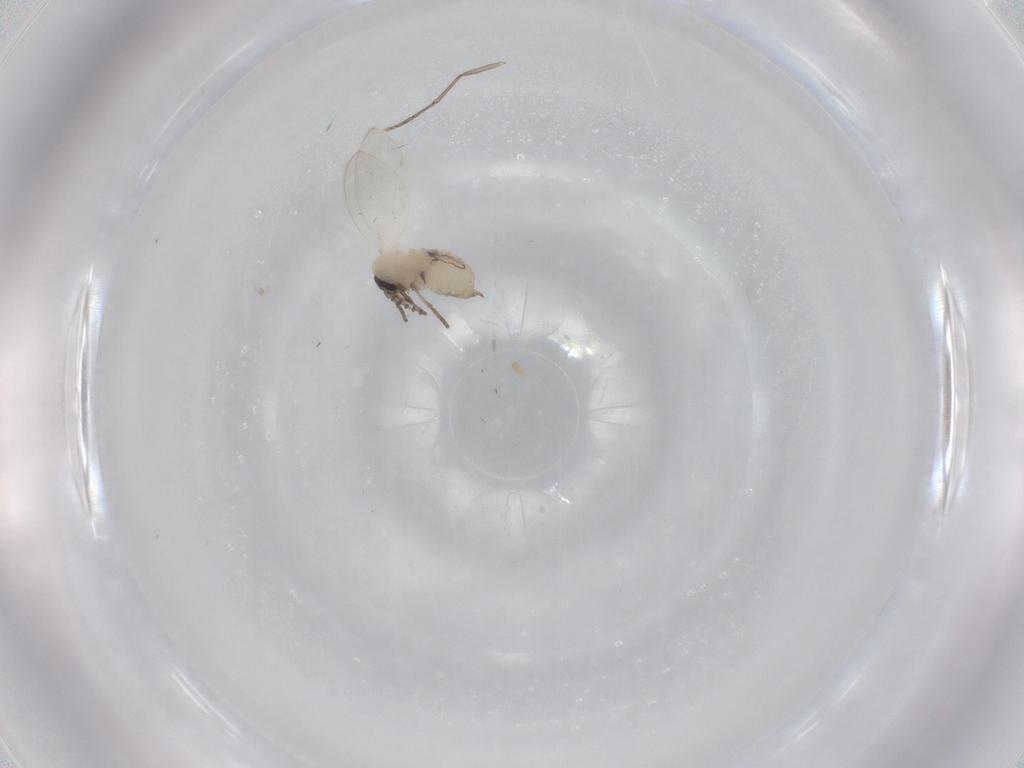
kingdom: Animalia
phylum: Arthropoda
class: Insecta
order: Diptera
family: Psychodidae
